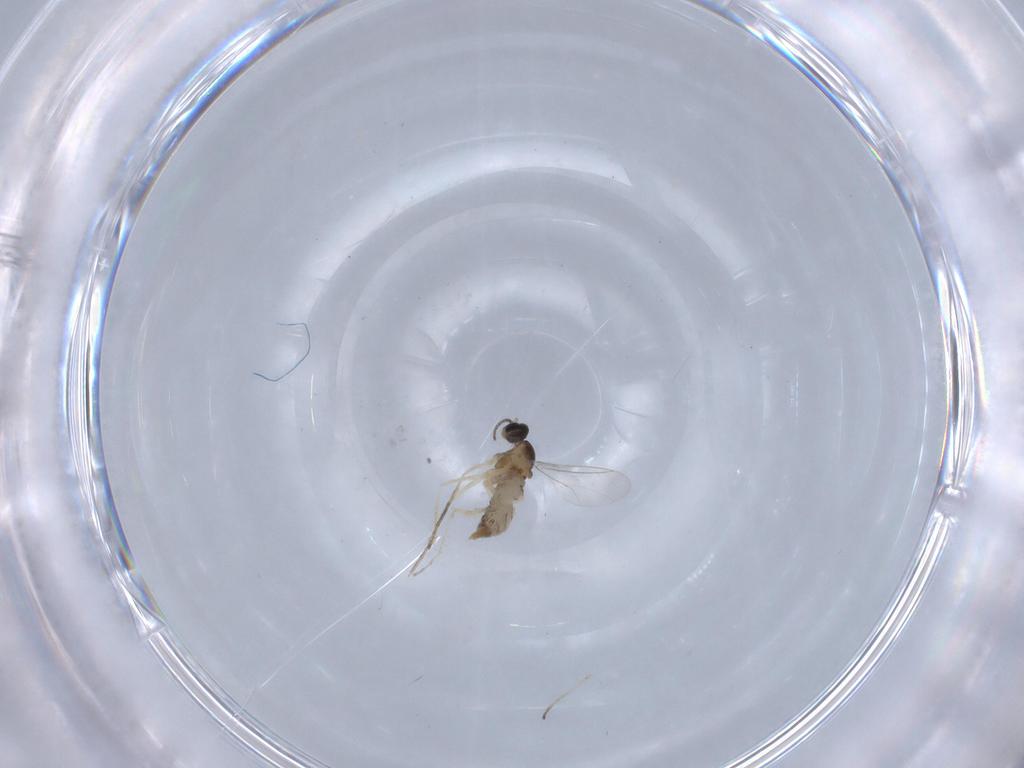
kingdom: Animalia
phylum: Arthropoda
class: Insecta
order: Diptera
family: Cecidomyiidae
